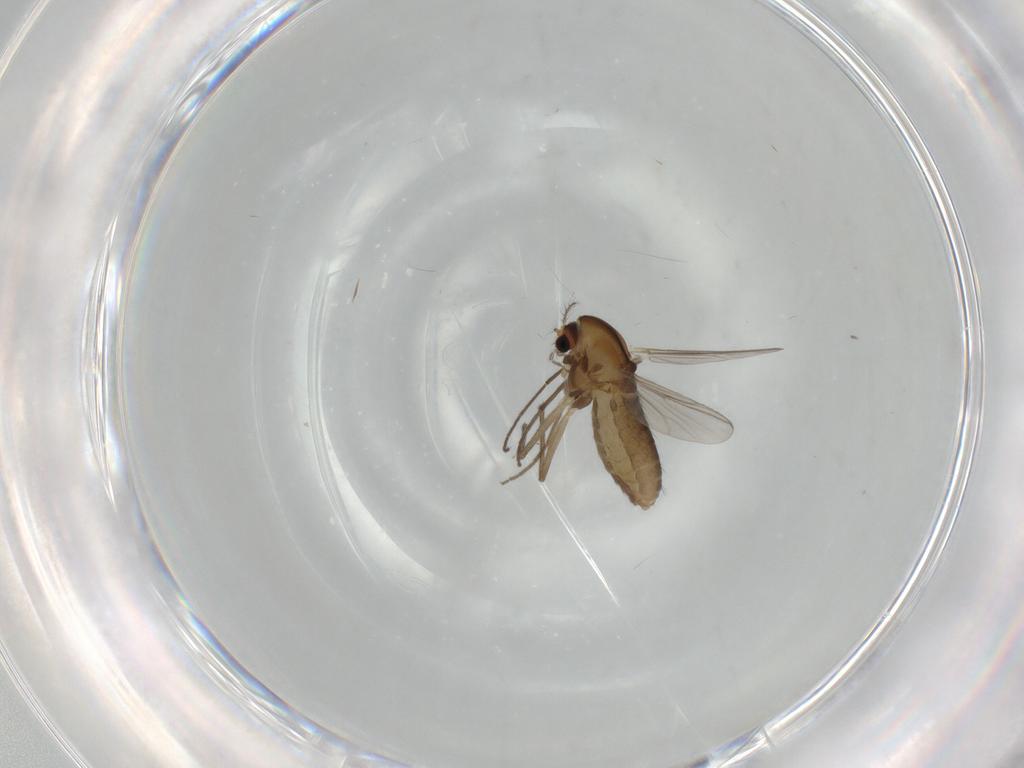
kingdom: Animalia
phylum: Arthropoda
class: Insecta
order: Diptera
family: Chironomidae
